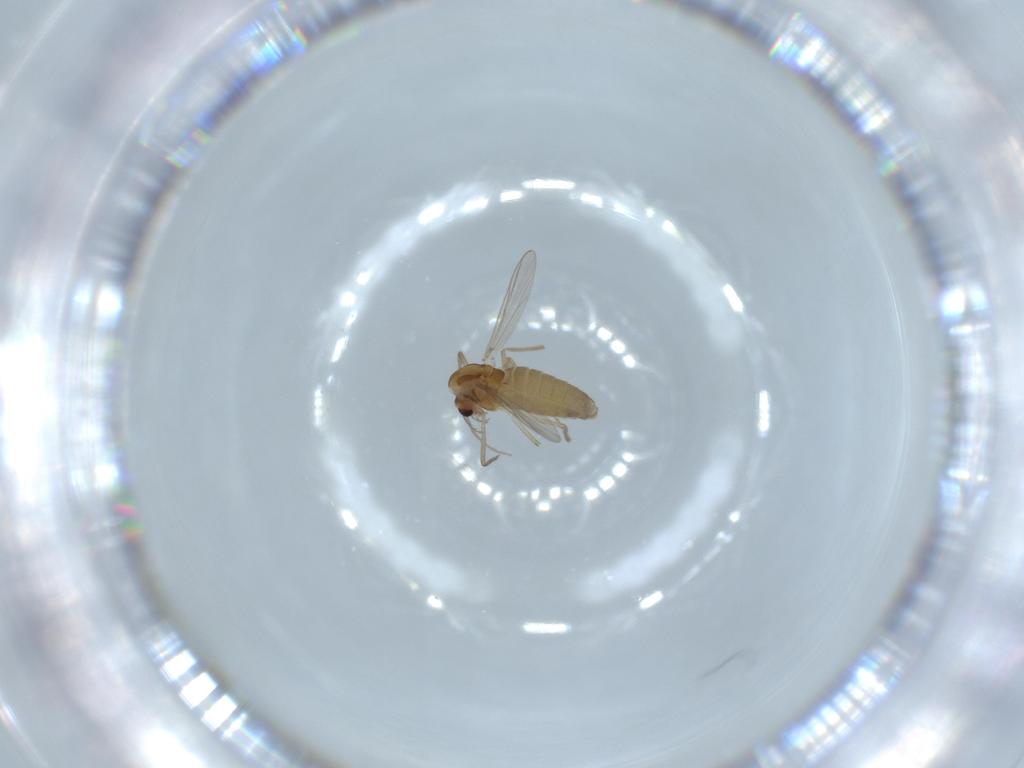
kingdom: Animalia
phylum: Arthropoda
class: Insecta
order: Diptera
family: Chironomidae
